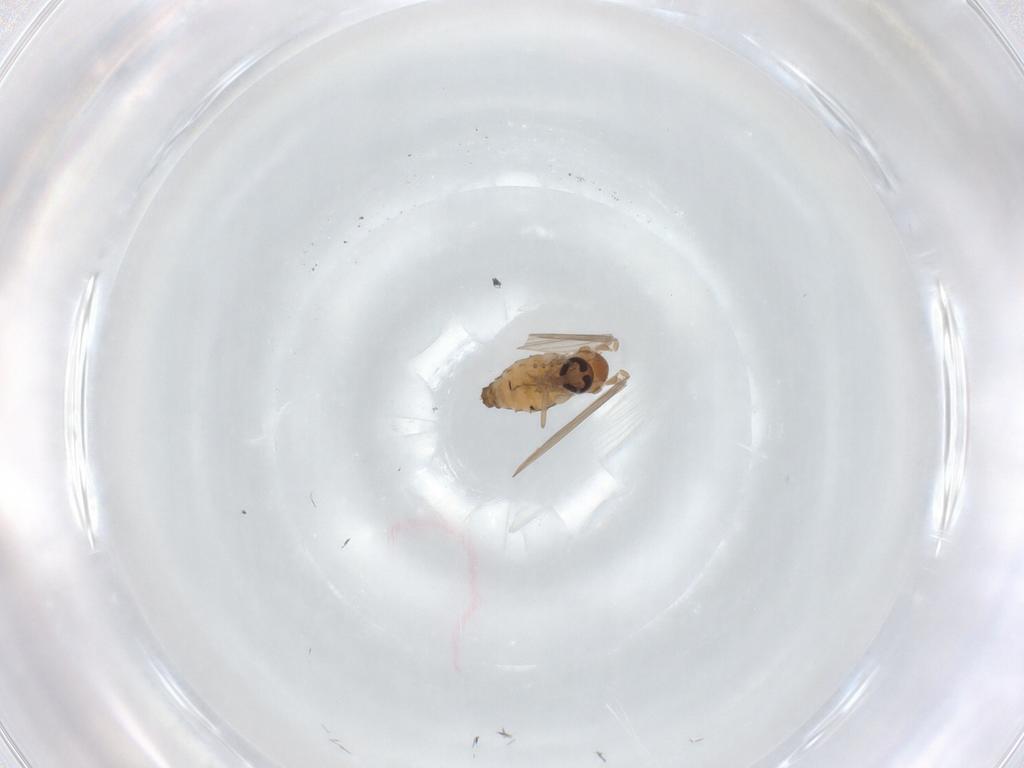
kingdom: Animalia
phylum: Arthropoda
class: Insecta
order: Diptera
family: Psychodidae
